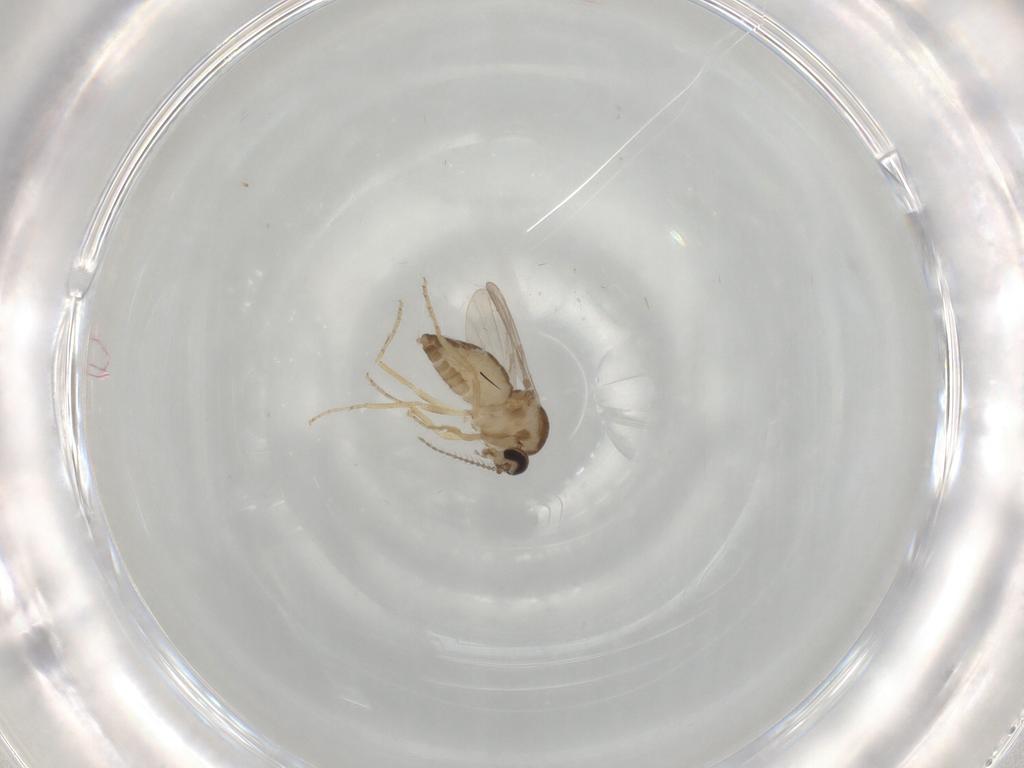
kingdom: Animalia
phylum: Arthropoda
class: Insecta
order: Diptera
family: Ceratopogonidae
